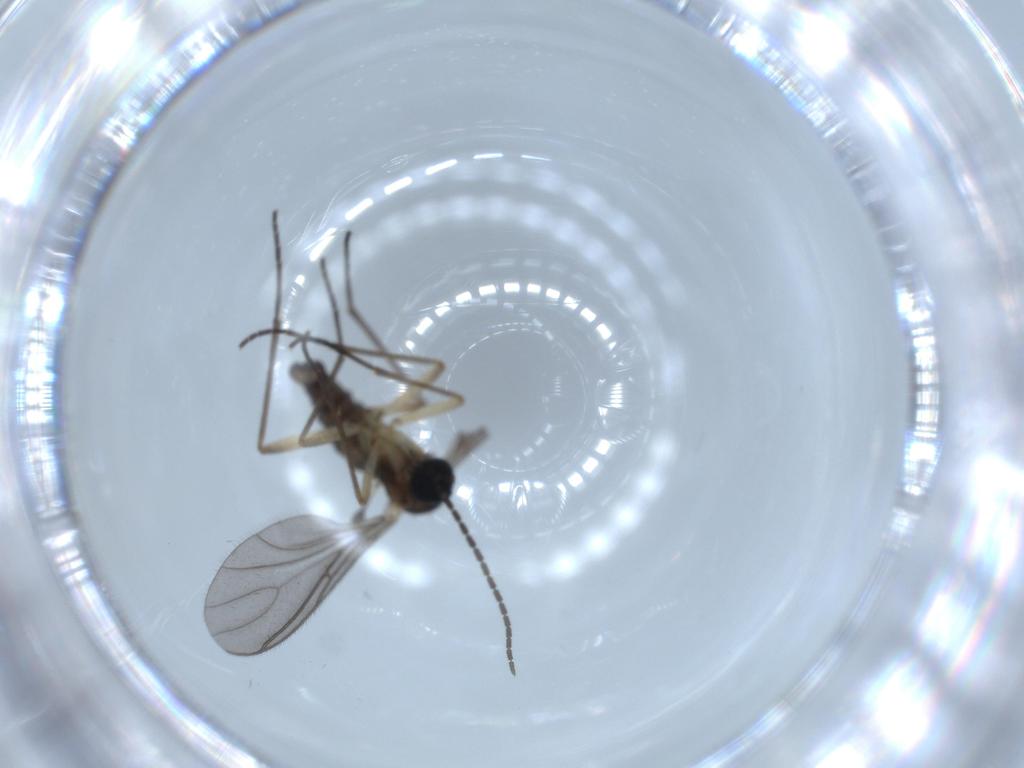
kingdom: Animalia
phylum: Arthropoda
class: Insecta
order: Diptera
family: Sciaridae
